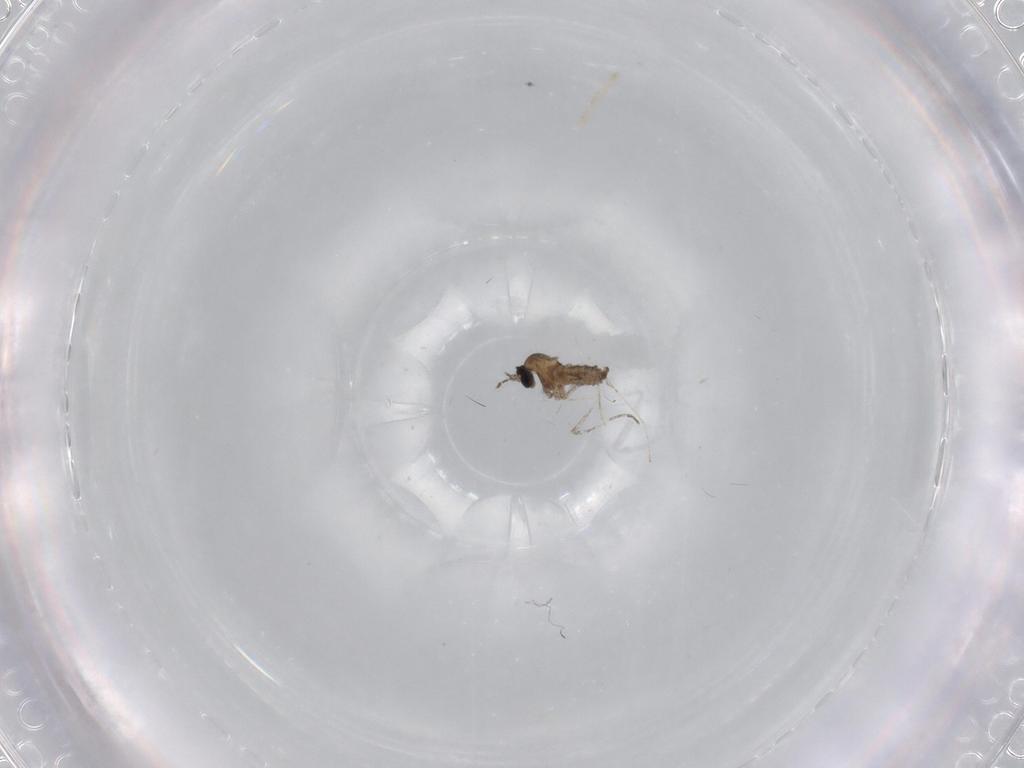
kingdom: Animalia
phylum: Arthropoda
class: Insecta
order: Diptera
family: Cecidomyiidae
